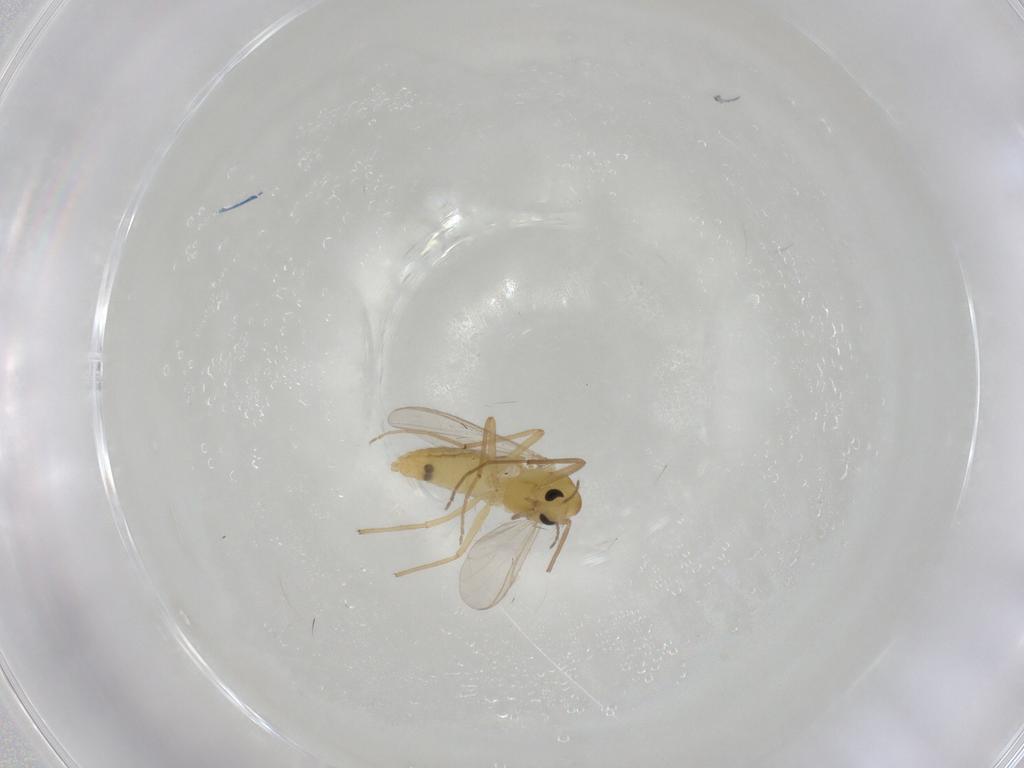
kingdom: Animalia
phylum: Arthropoda
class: Insecta
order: Diptera
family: Chironomidae
